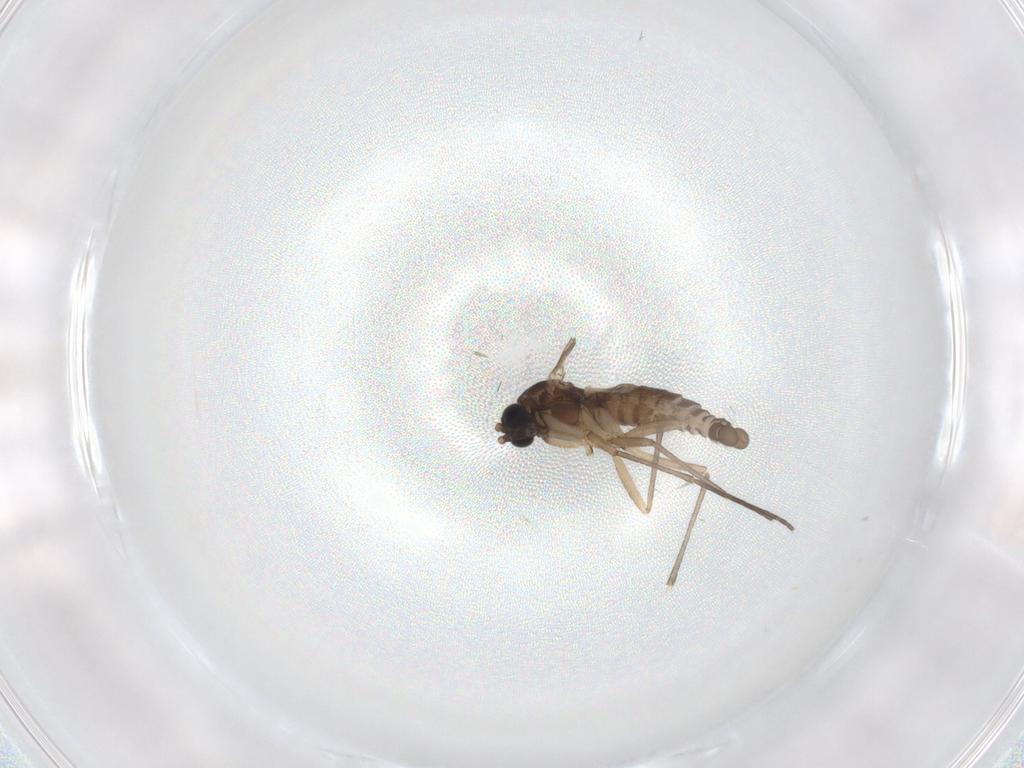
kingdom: Animalia
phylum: Arthropoda
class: Insecta
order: Diptera
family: Sciaridae
